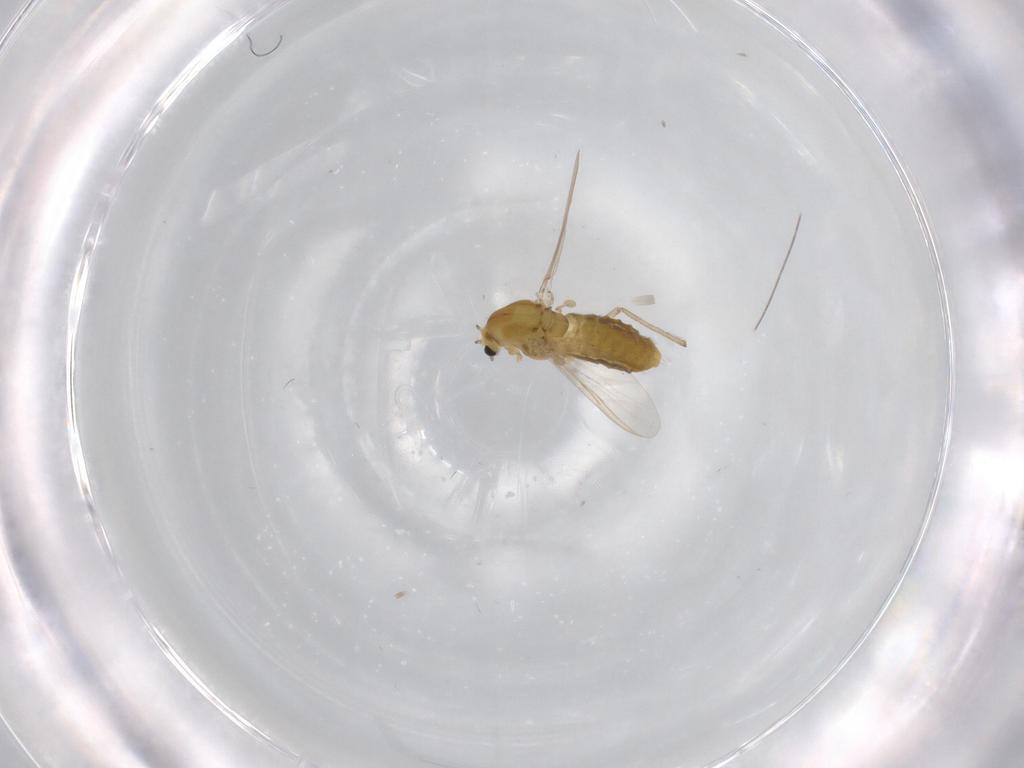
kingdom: Animalia
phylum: Arthropoda
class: Insecta
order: Diptera
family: Chironomidae
